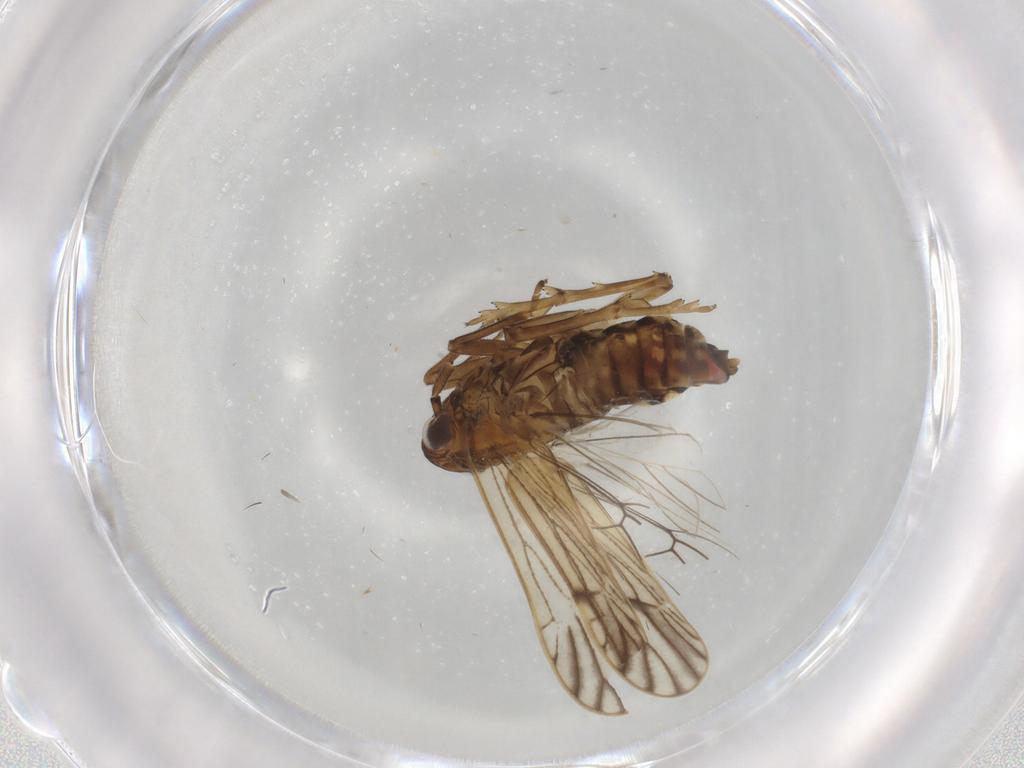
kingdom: Animalia
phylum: Arthropoda
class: Insecta
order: Hemiptera
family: Delphacidae
